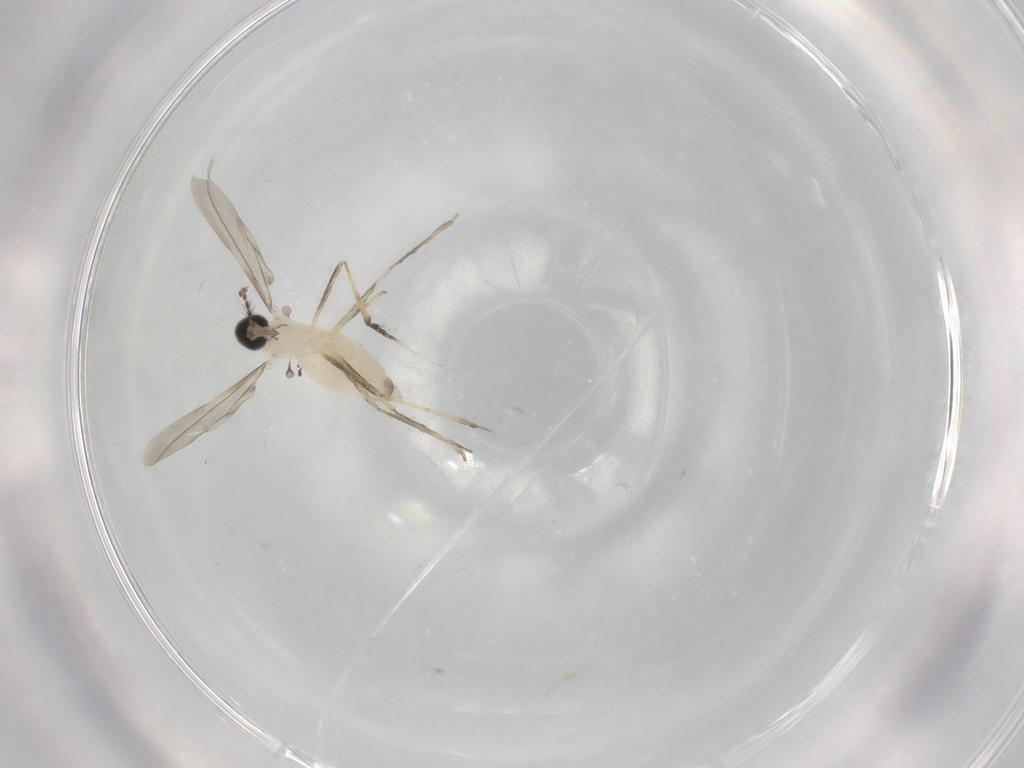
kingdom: Animalia
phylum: Arthropoda
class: Insecta
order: Diptera
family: Cecidomyiidae
